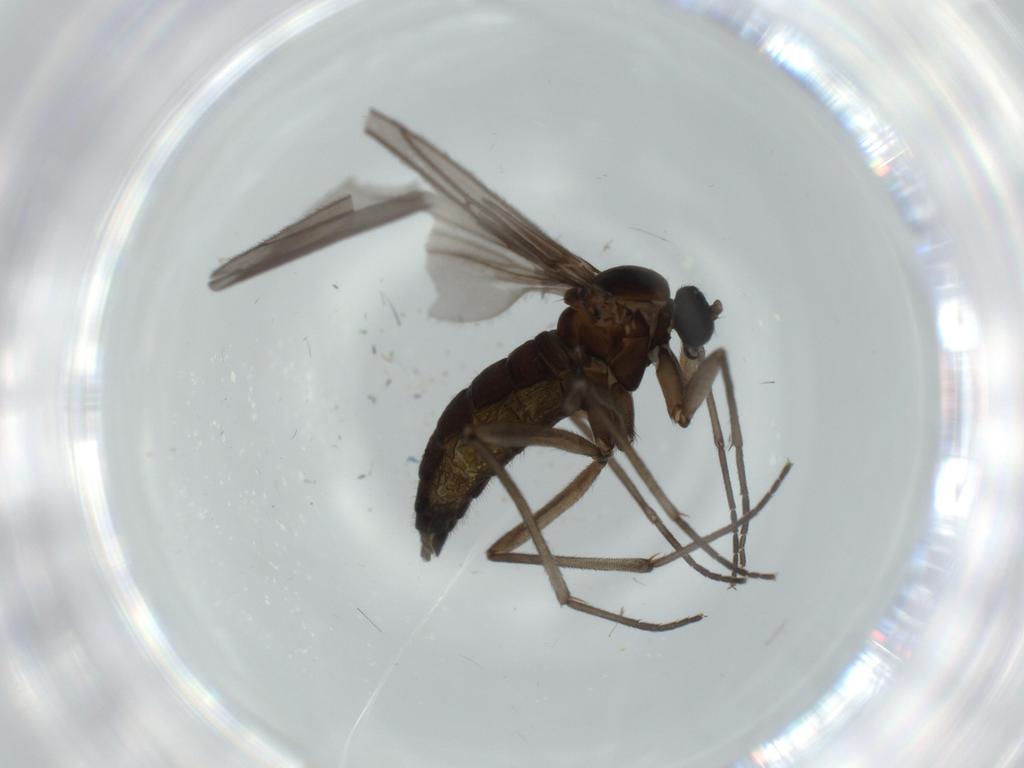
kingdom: Animalia
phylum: Arthropoda
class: Insecta
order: Diptera
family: Sciaridae
